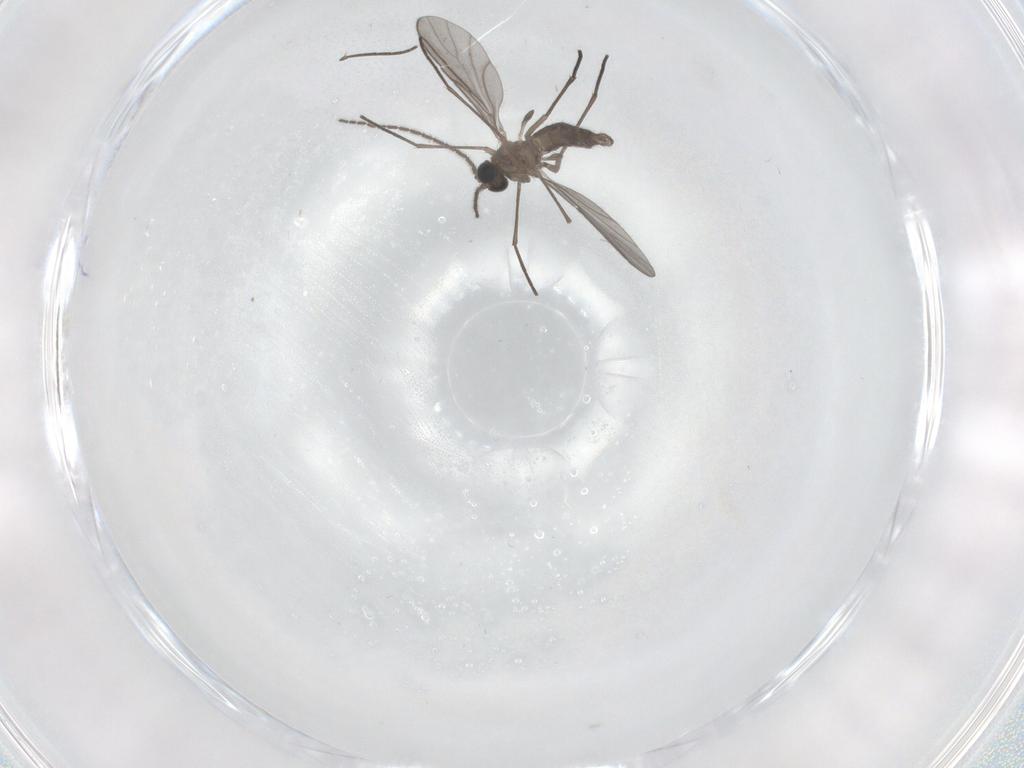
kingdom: Animalia
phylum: Arthropoda
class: Insecta
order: Diptera
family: Sciaridae
